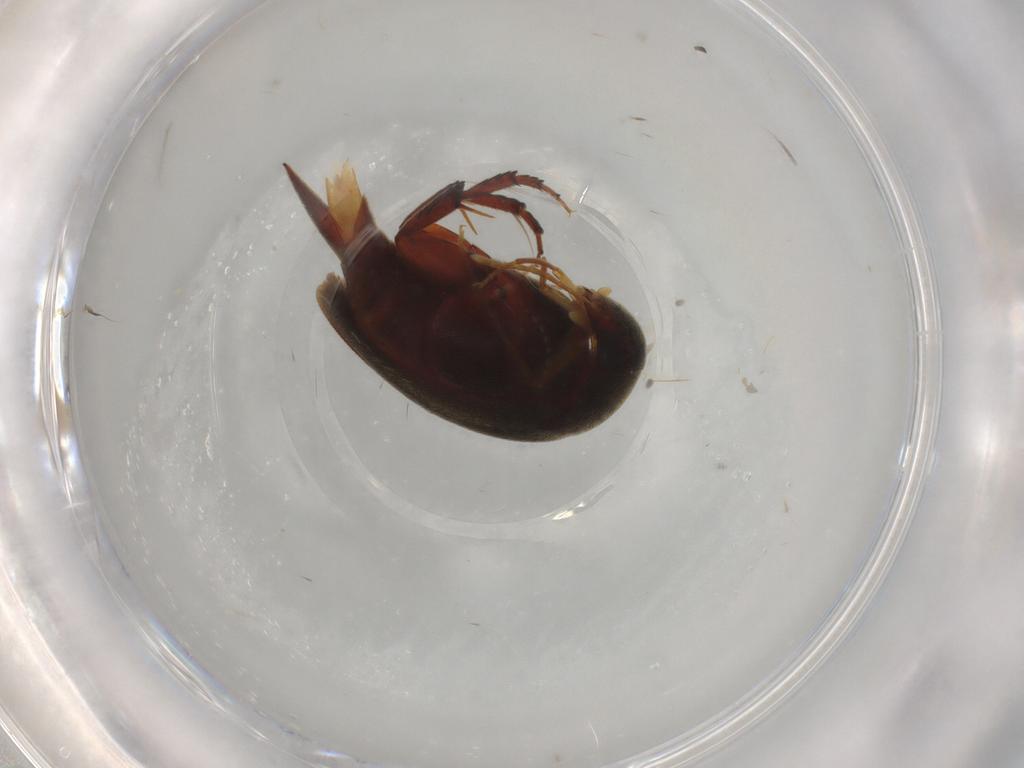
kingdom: Animalia
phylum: Arthropoda
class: Insecta
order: Coleoptera
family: Mordellidae
